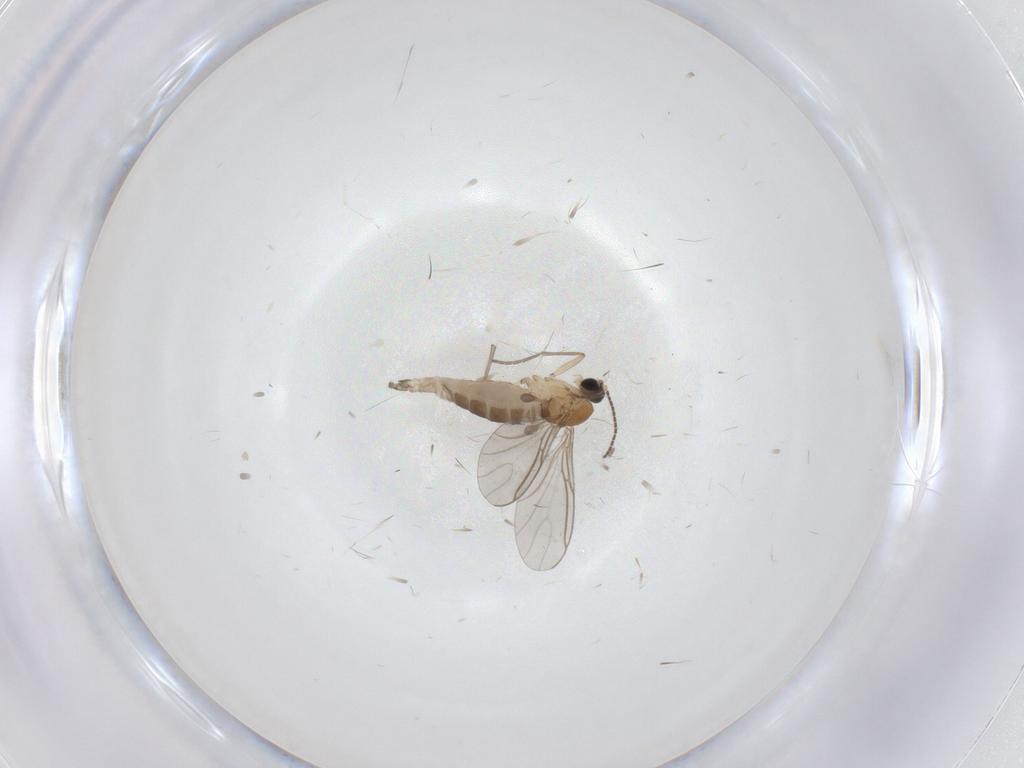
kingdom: Animalia
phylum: Arthropoda
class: Insecta
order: Diptera
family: Sciaridae
